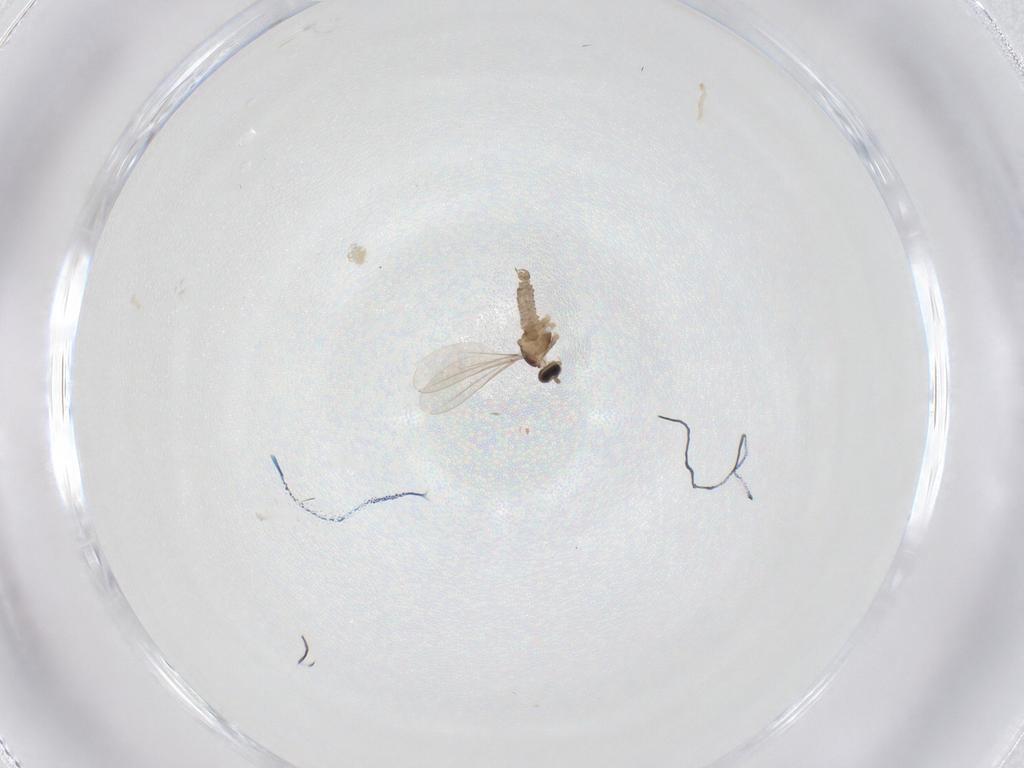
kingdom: Animalia
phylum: Arthropoda
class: Insecta
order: Diptera
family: Cecidomyiidae
